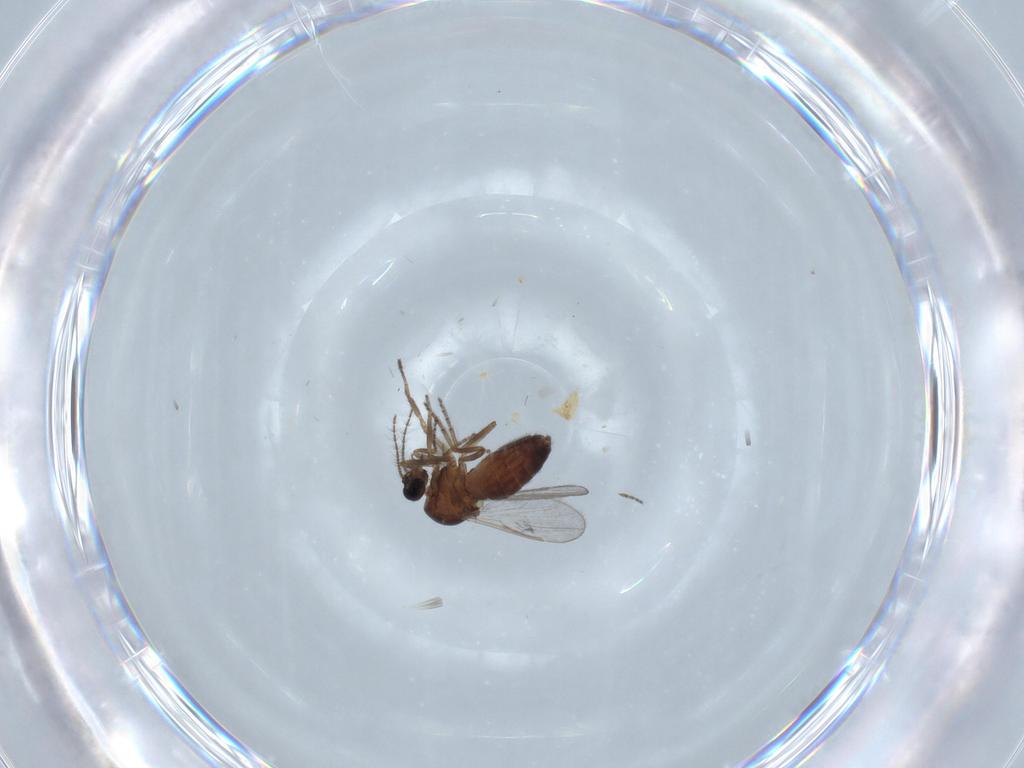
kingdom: Animalia
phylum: Arthropoda
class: Insecta
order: Diptera
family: Ceratopogonidae
